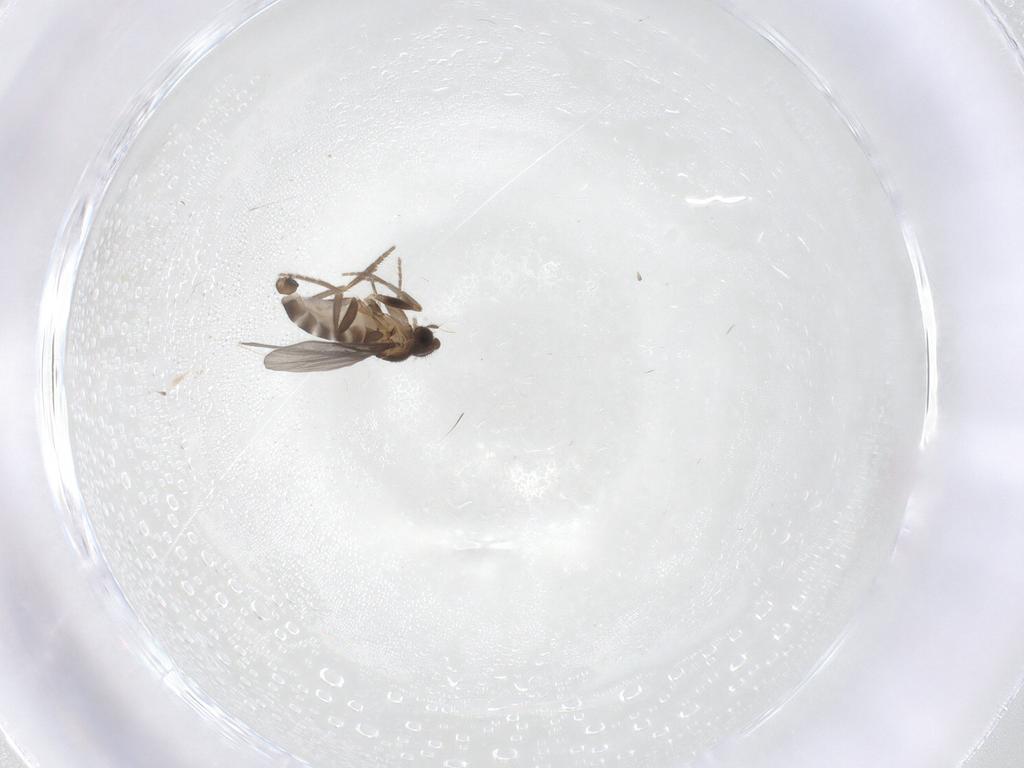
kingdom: Animalia
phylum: Arthropoda
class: Insecta
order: Diptera
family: Phoridae
